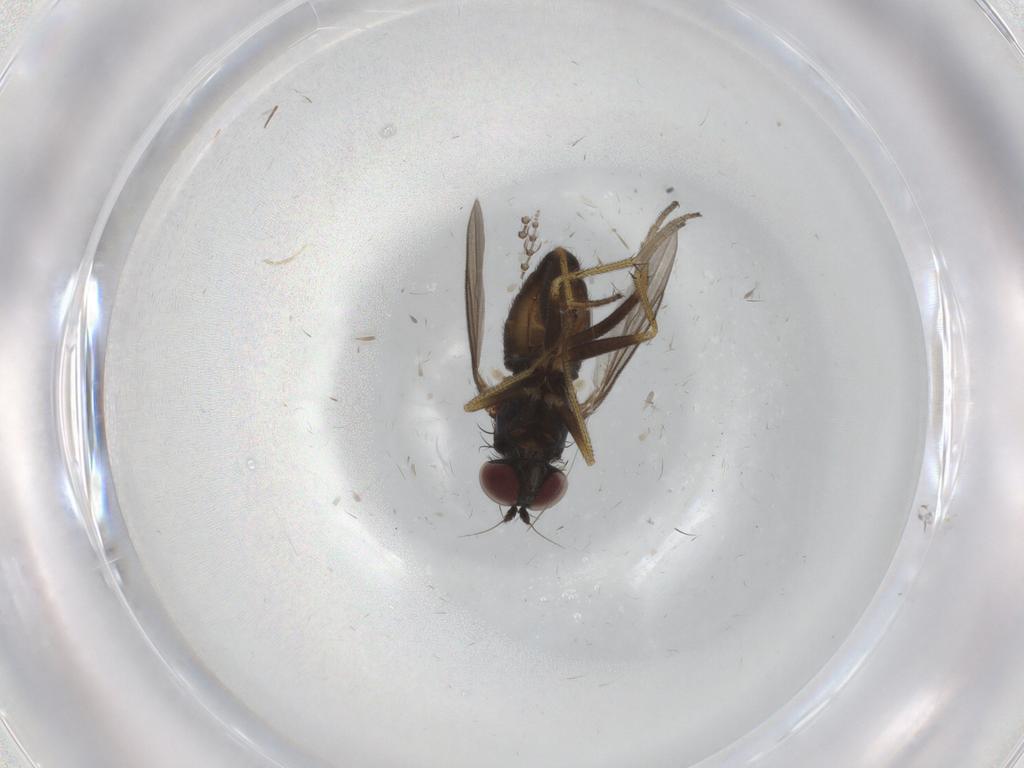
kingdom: Animalia
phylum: Arthropoda
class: Insecta
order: Diptera
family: Psychodidae
